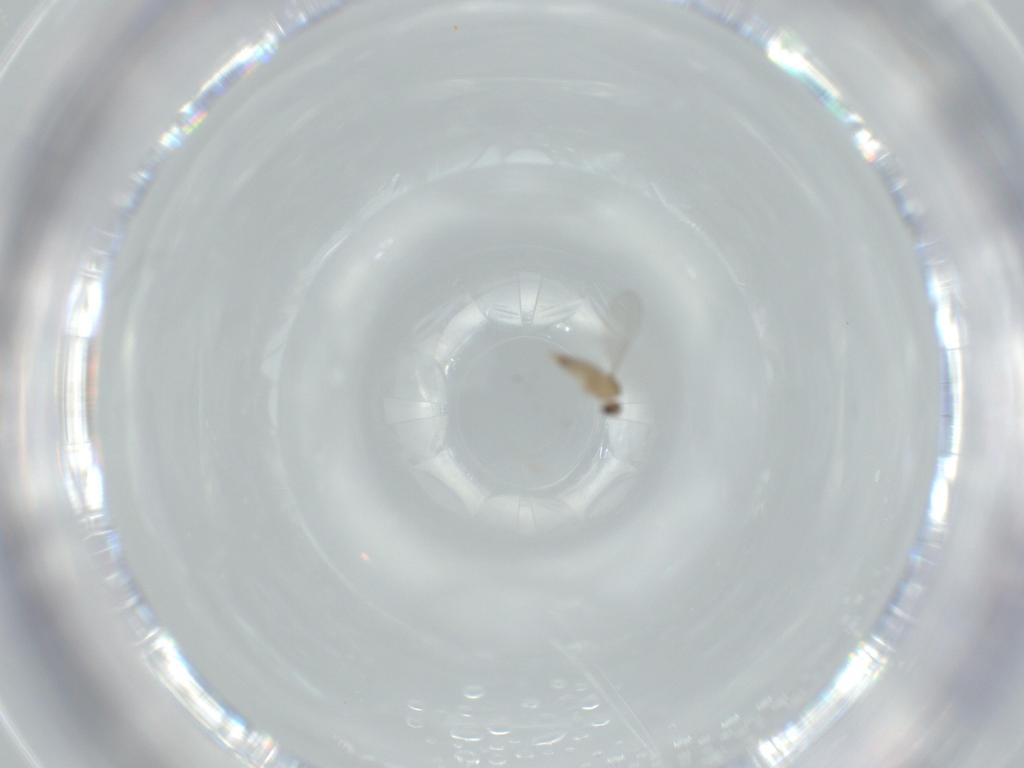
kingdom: Animalia
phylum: Arthropoda
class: Insecta
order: Diptera
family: Cecidomyiidae
